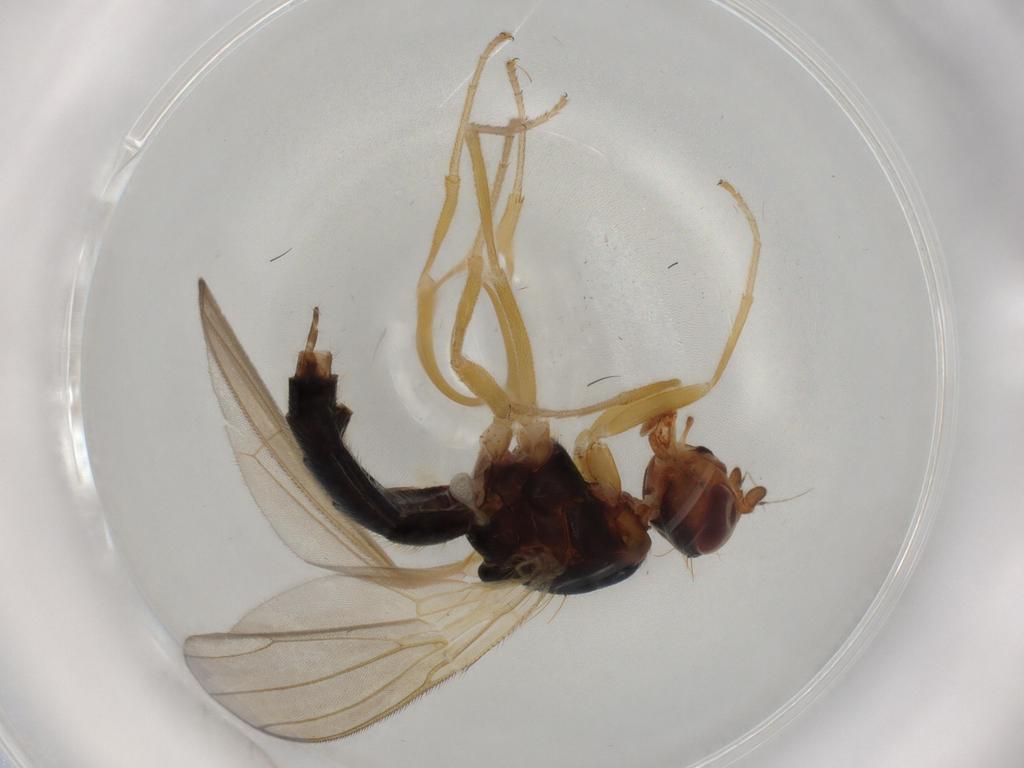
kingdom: Animalia
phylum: Arthropoda
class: Insecta
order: Diptera
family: Psilidae
